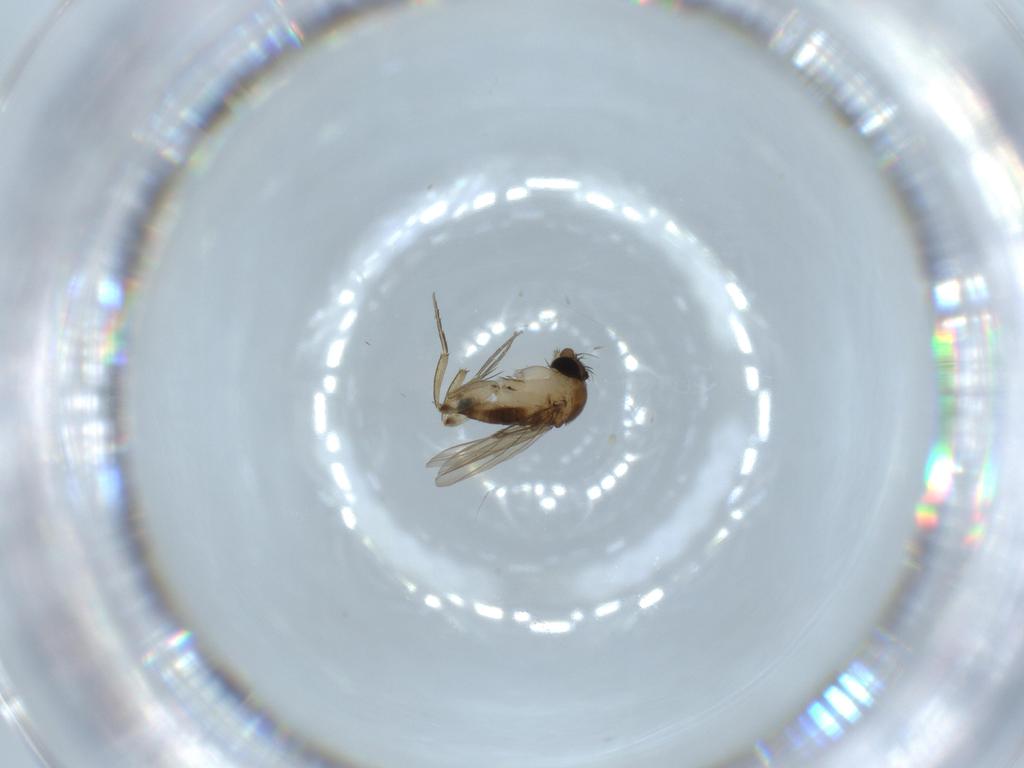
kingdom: Animalia
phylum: Arthropoda
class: Insecta
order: Diptera
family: Phoridae
